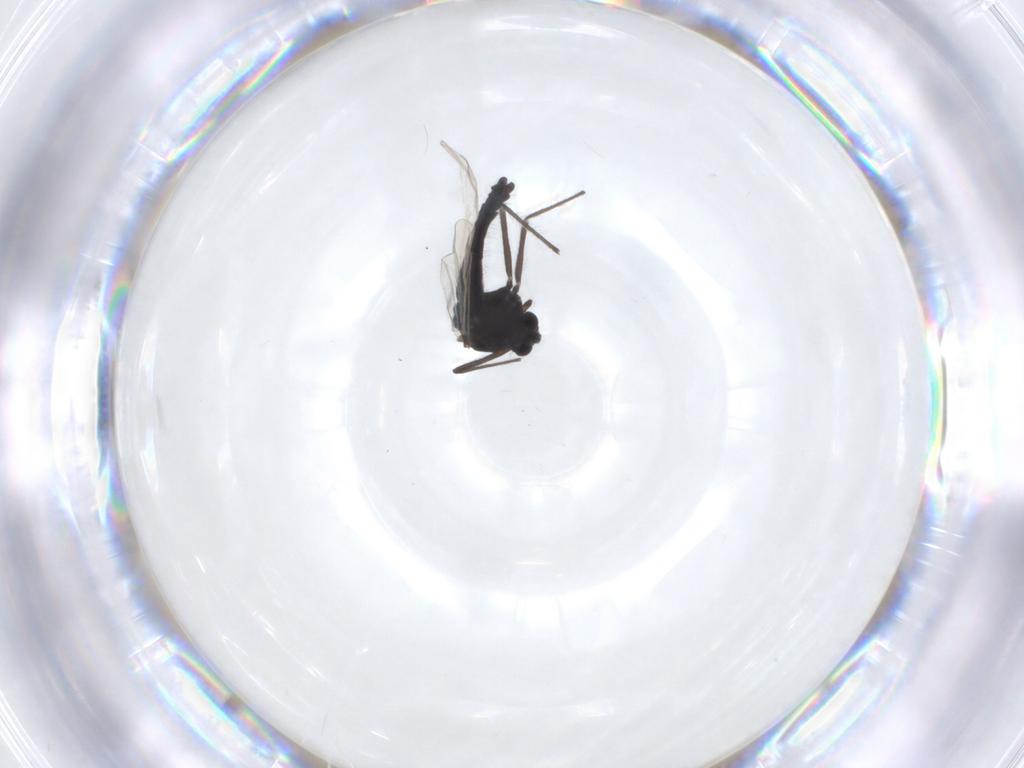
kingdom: Animalia
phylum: Arthropoda
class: Insecta
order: Diptera
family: Chironomidae
